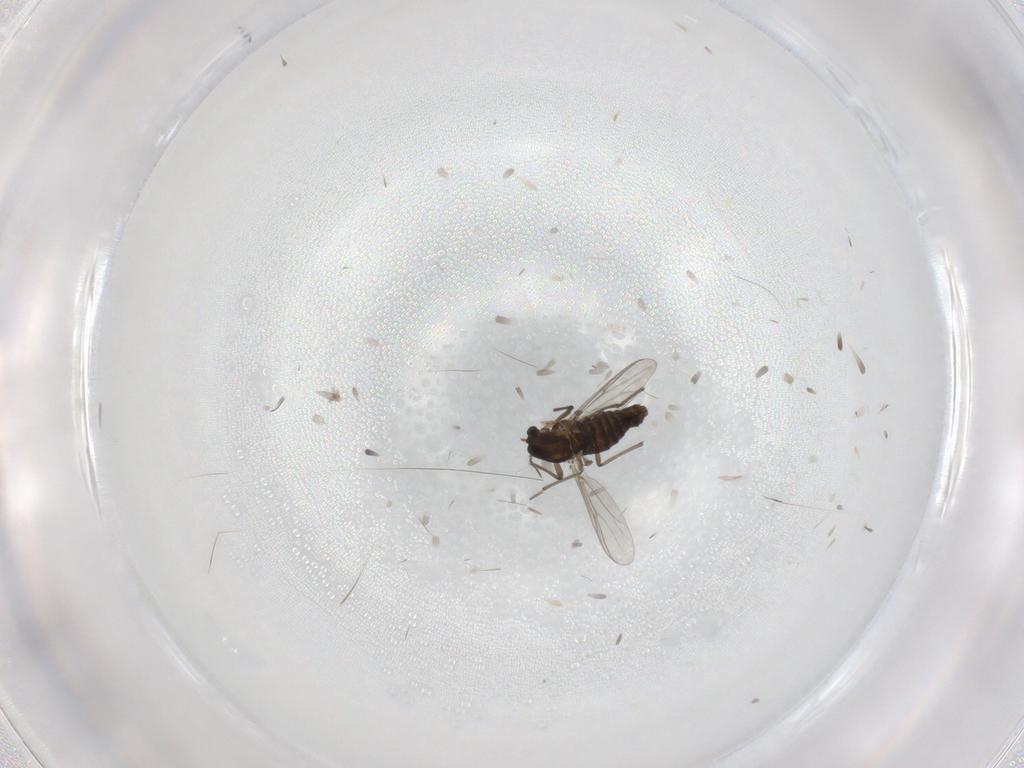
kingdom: Animalia
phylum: Arthropoda
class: Insecta
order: Diptera
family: Chironomidae
